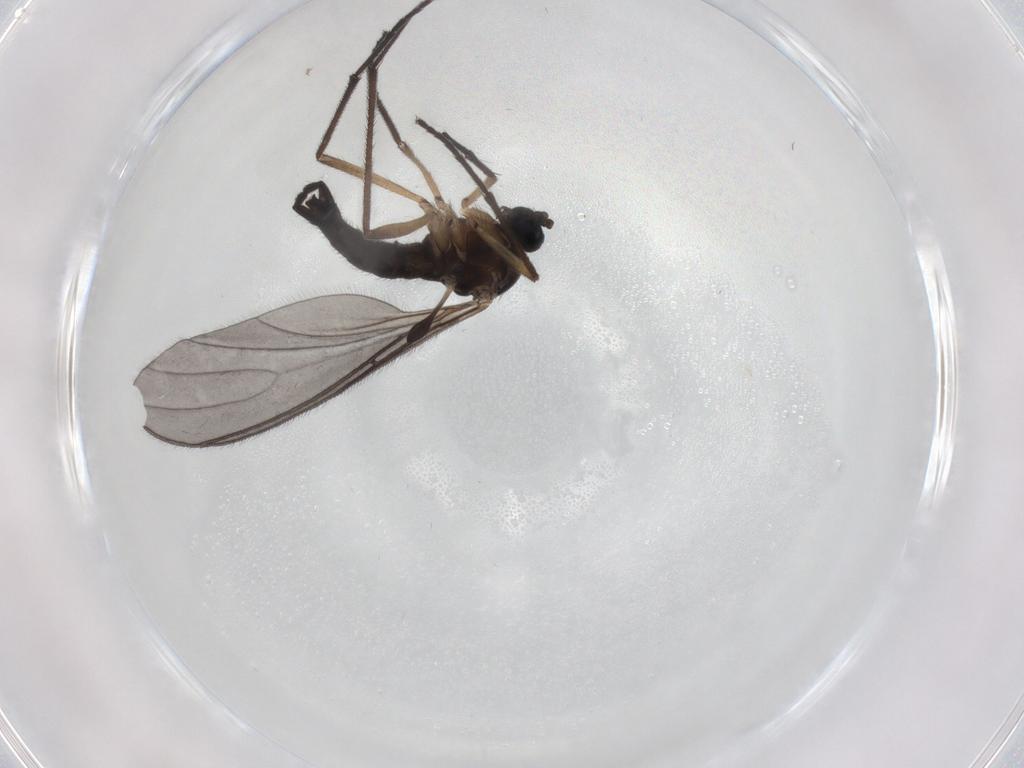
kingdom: Animalia
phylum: Arthropoda
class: Insecta
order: Diptera
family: Sciaridae
